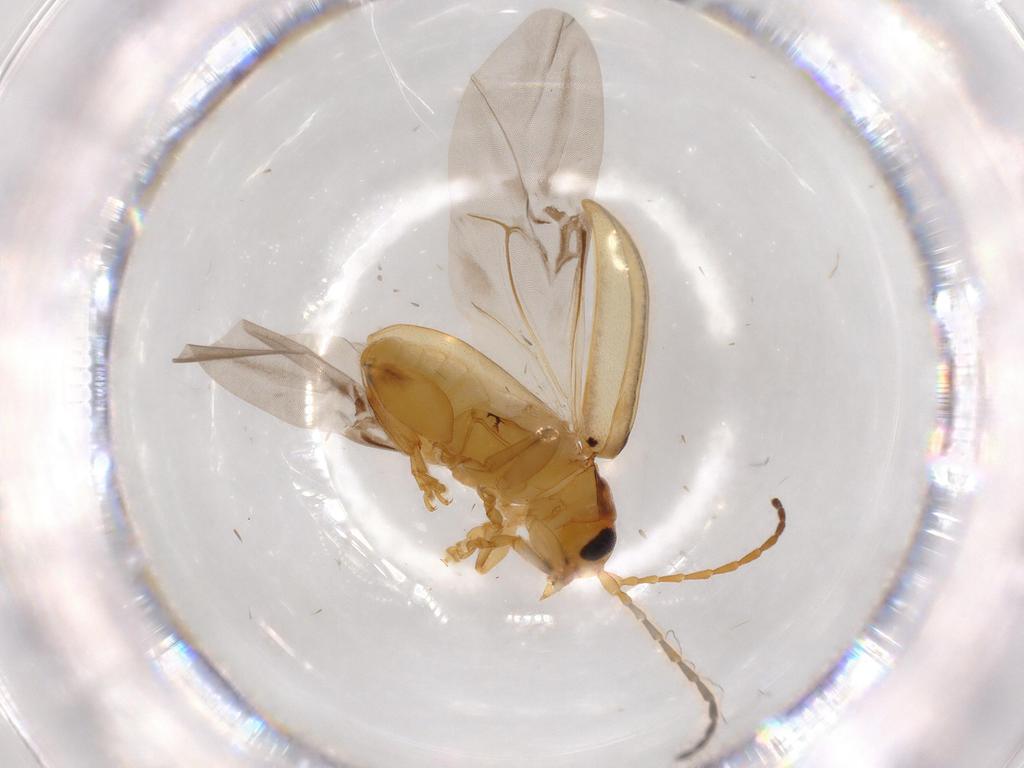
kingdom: Animalia
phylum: Arthropoda
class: Insecta
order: Coleoptera
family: Chrysomelidae
